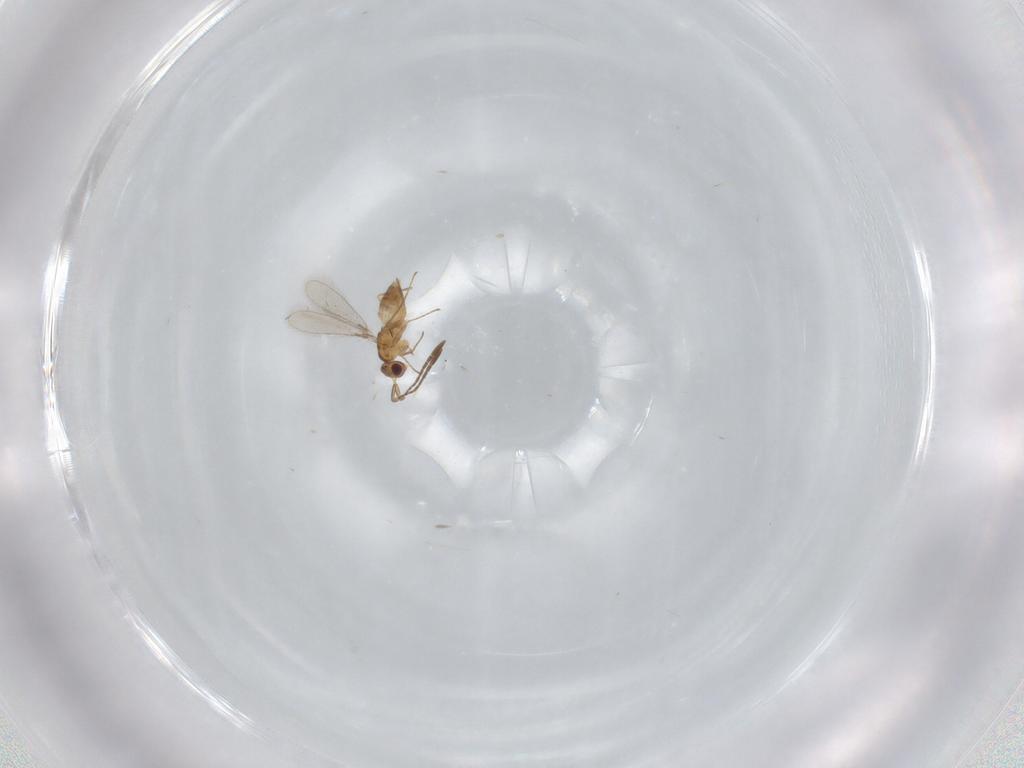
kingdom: Animalia
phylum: Arthropoda
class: Insecta
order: Hymenoptera
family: Mymaridae
